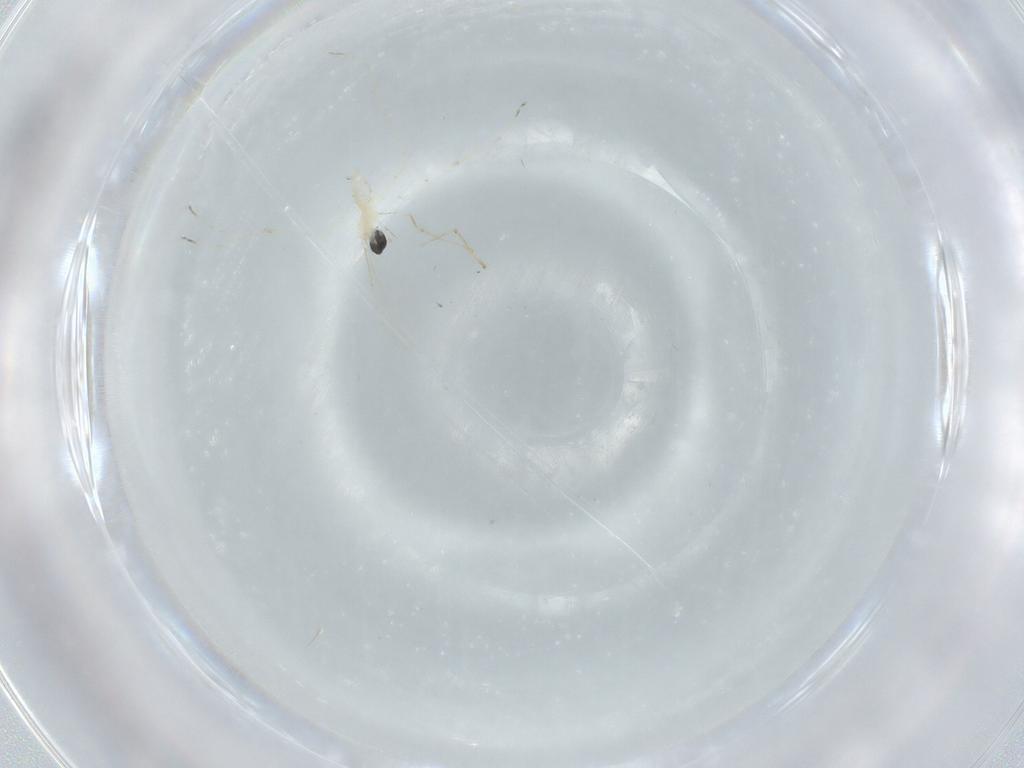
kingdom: Animalia
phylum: Arthropoda
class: Insecta
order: Diptera
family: Cecidomyiidae
